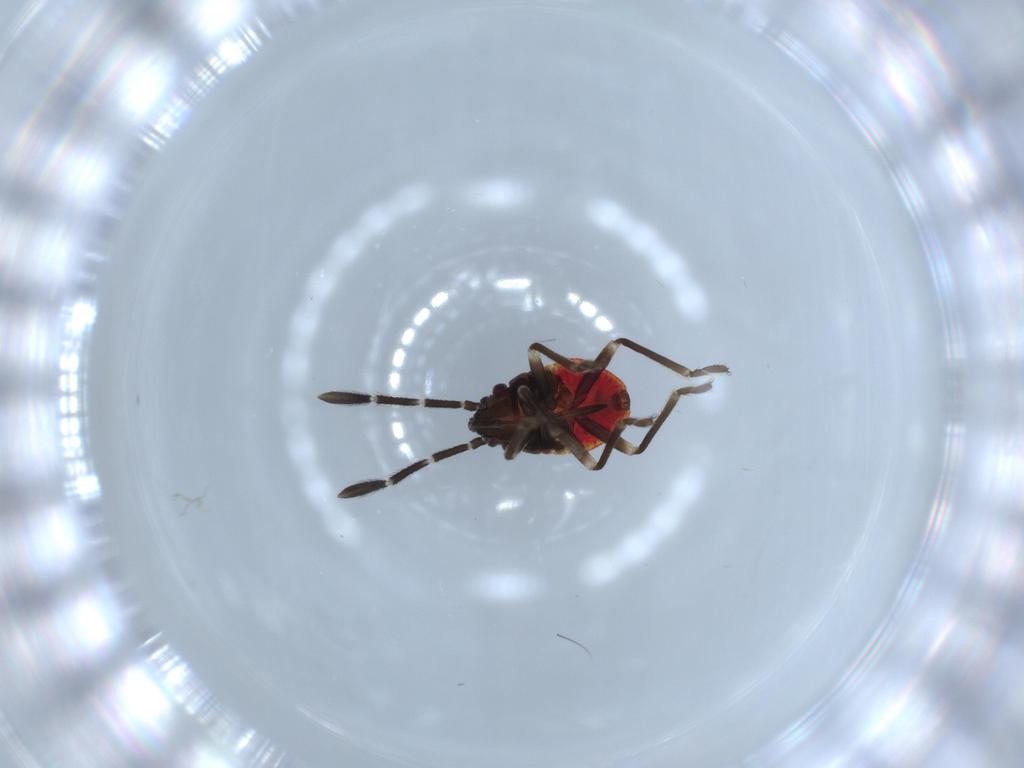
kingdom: Animalia
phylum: Arthropoda
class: Insecta
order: Hemiptera
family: Lygaeidae
